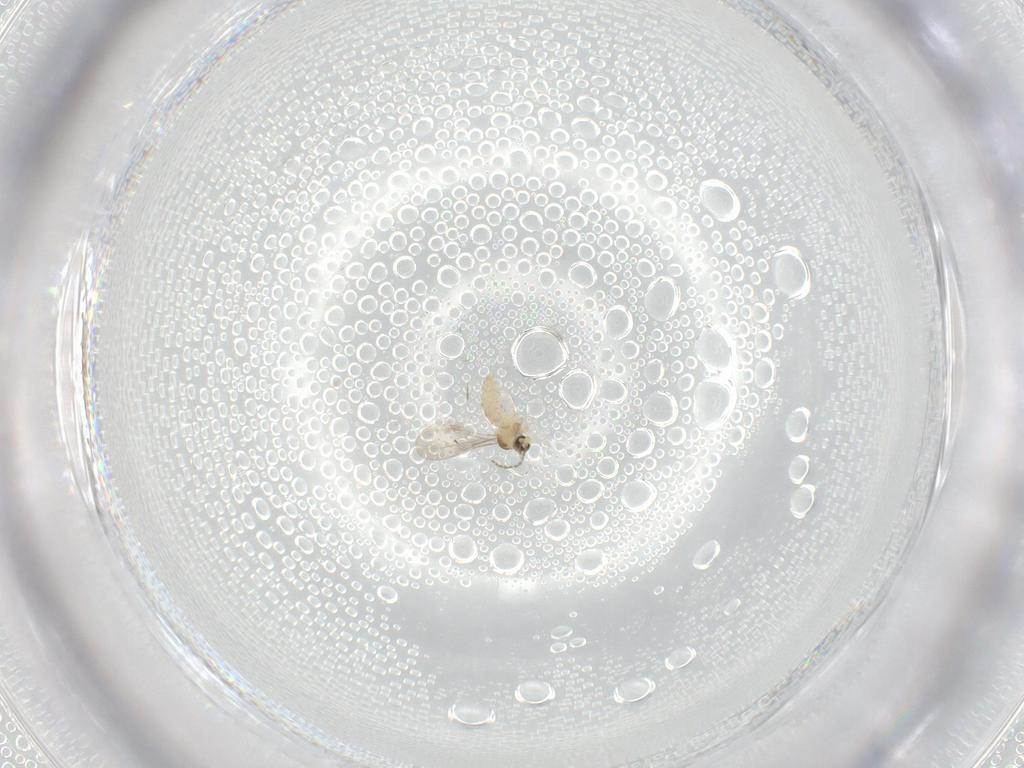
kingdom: Animalia
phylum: Arthropoda
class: Insecta
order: Diptera
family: Cecidomyiidae
